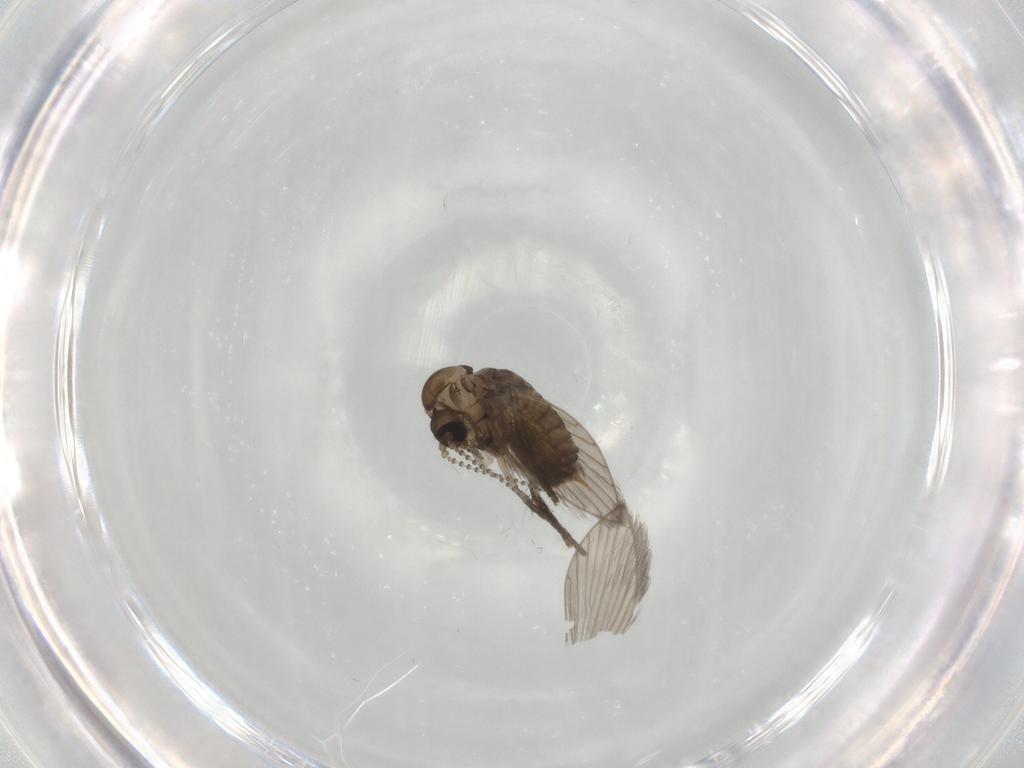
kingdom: Animalia
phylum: Arthropoda
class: Insecta
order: Diptera
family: Psychodidae
